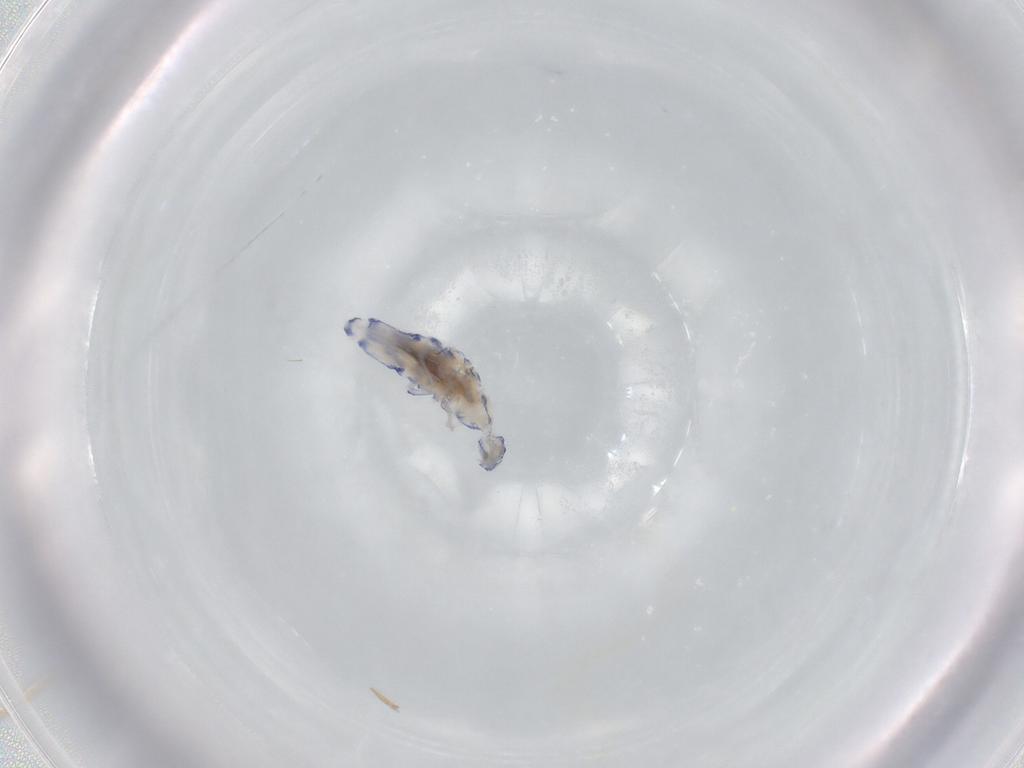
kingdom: Animalia
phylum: Arthropoda
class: Collembola
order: Entomobryomorpha
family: Entomobryidae
